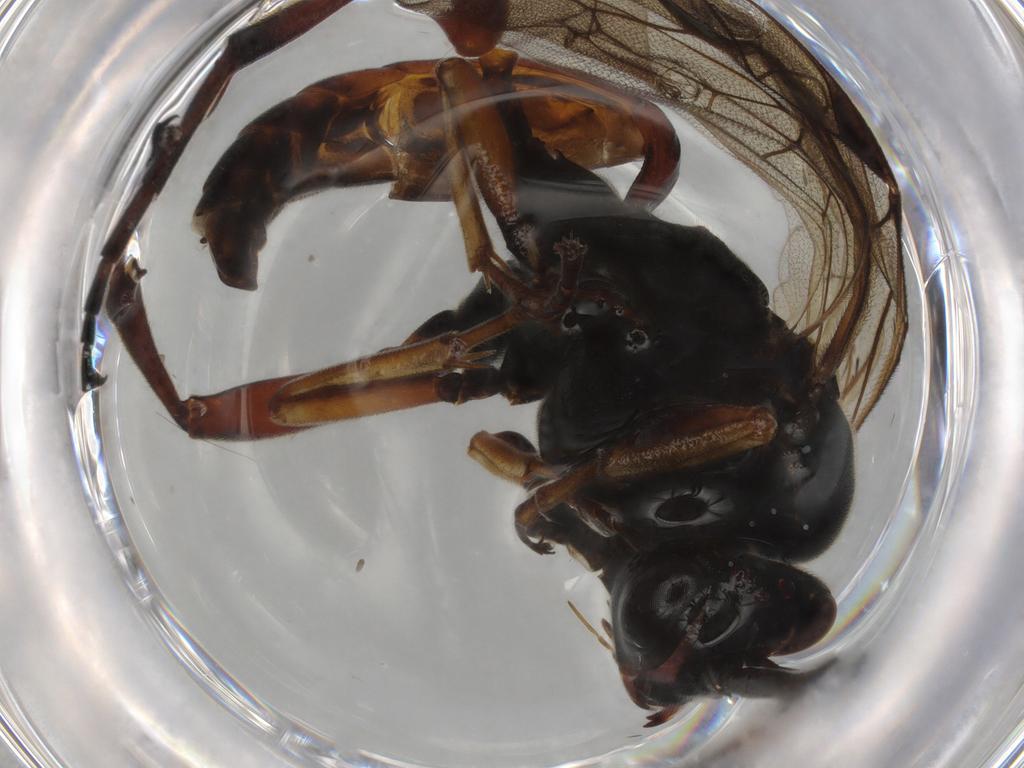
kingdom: Animalia
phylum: Arthropoda
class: Insecta
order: Hymenoptera
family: Ichneumonidae
